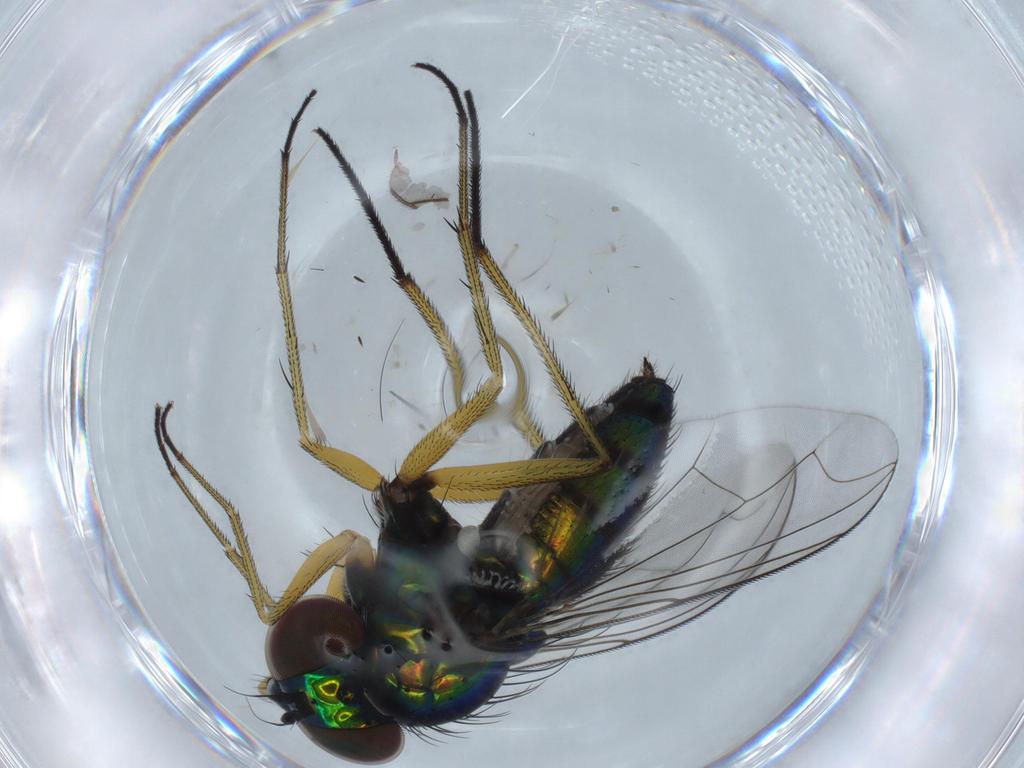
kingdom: Animalia
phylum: Arthropoda
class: Insecta
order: Diptera
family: Dolichopodidae
